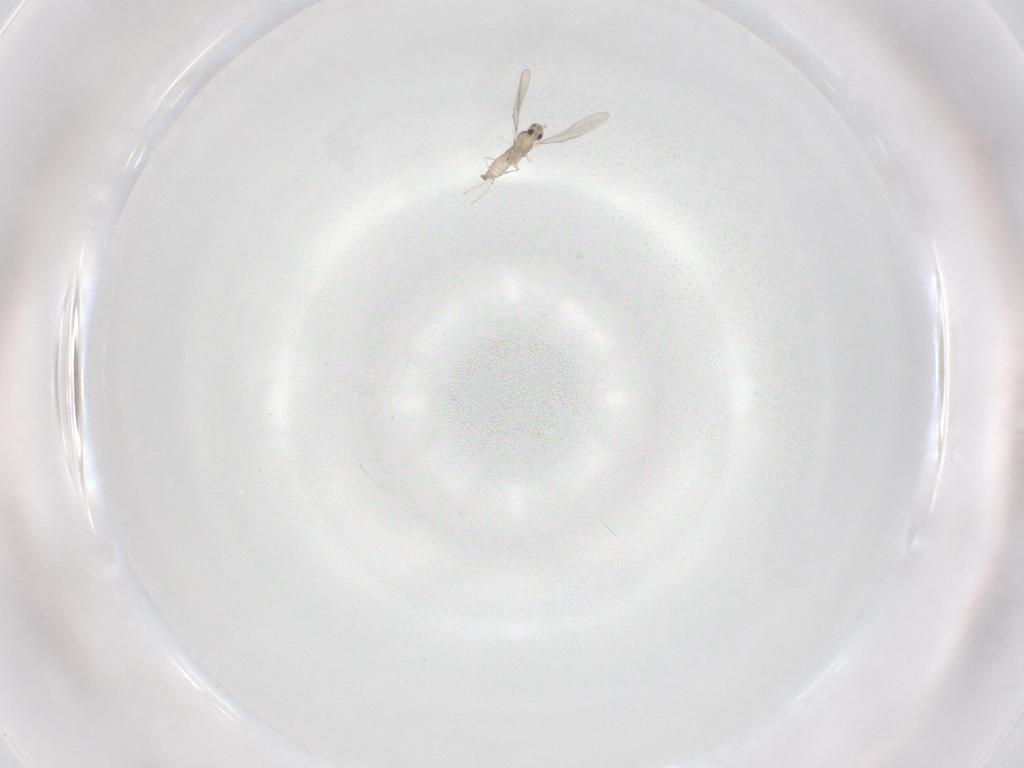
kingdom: Animalia
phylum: Arthropoda
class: Insecta
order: Diptera
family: Cecidomyiidae
